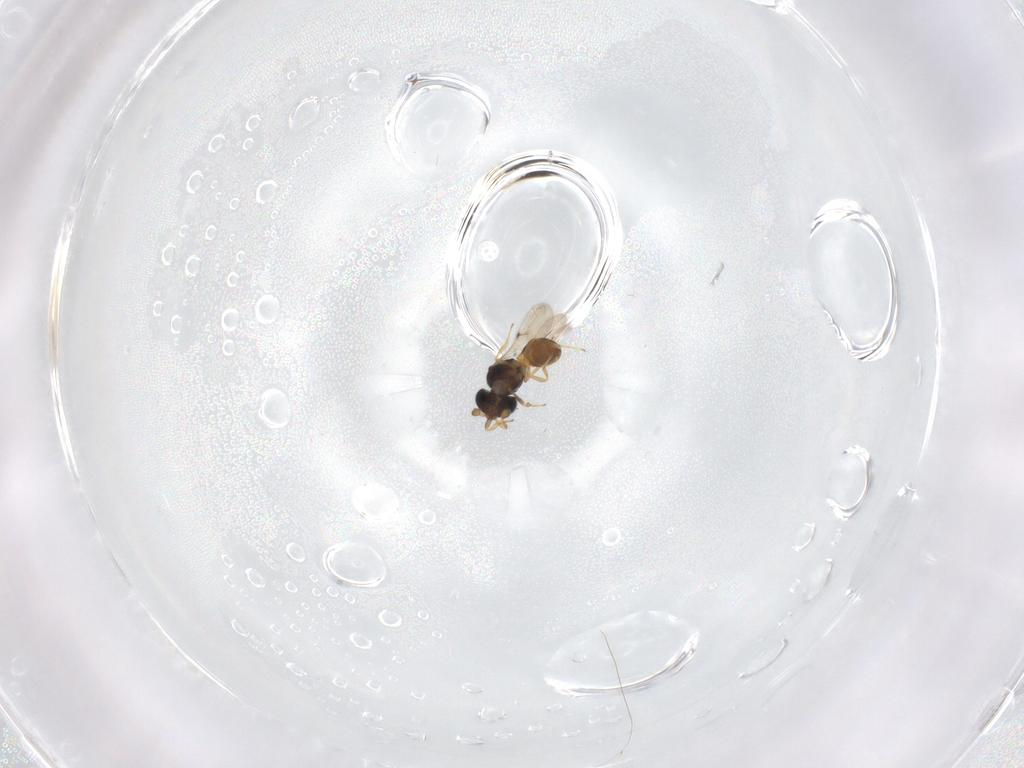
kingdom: Animalia
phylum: Arthropoda
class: Insecta
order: Hymenoptera
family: Scelionidae
